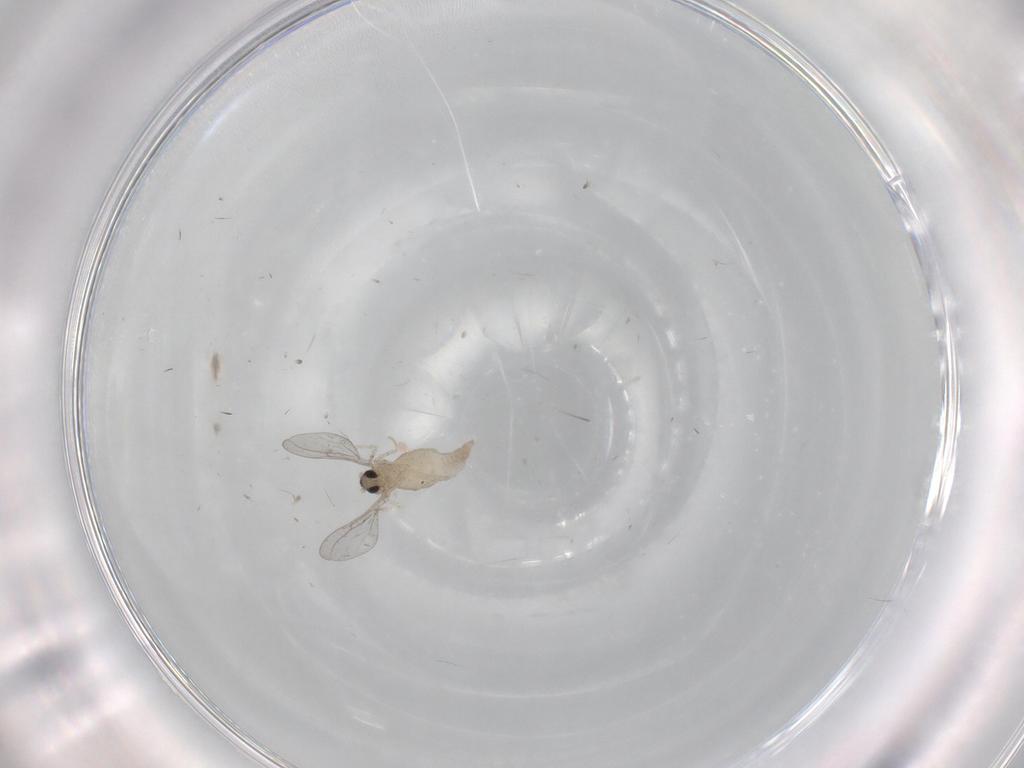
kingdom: Animalia
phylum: Arthropoda
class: Insecta
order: Diptera
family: Cecidomyiidae
